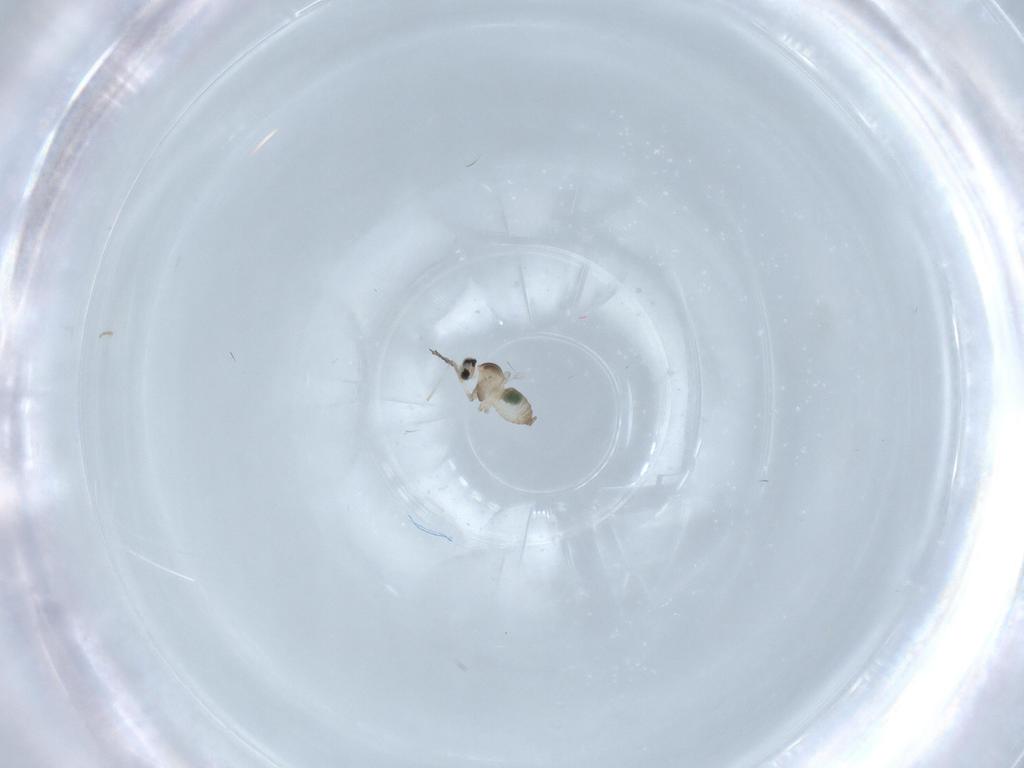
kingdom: Animalia
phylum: Arthropoda
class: Insecta
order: Diptera
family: Cecidomyiidae
